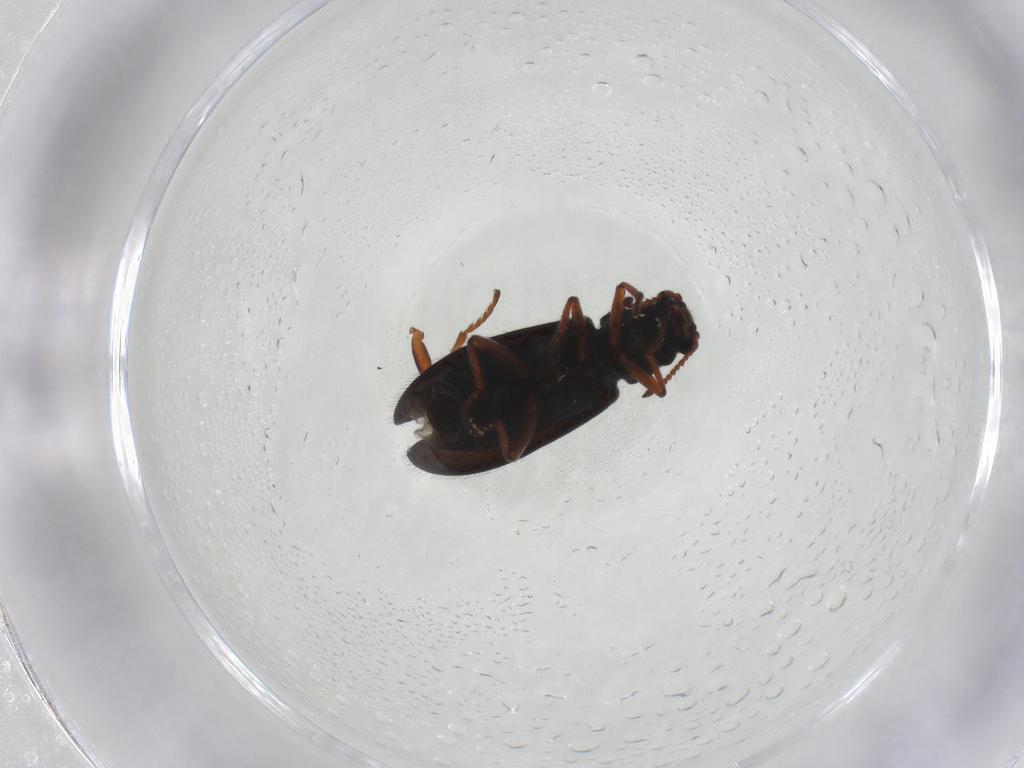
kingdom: Animalia
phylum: Arthropoda
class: Insecta
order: Coleoptera
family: Melyridae
